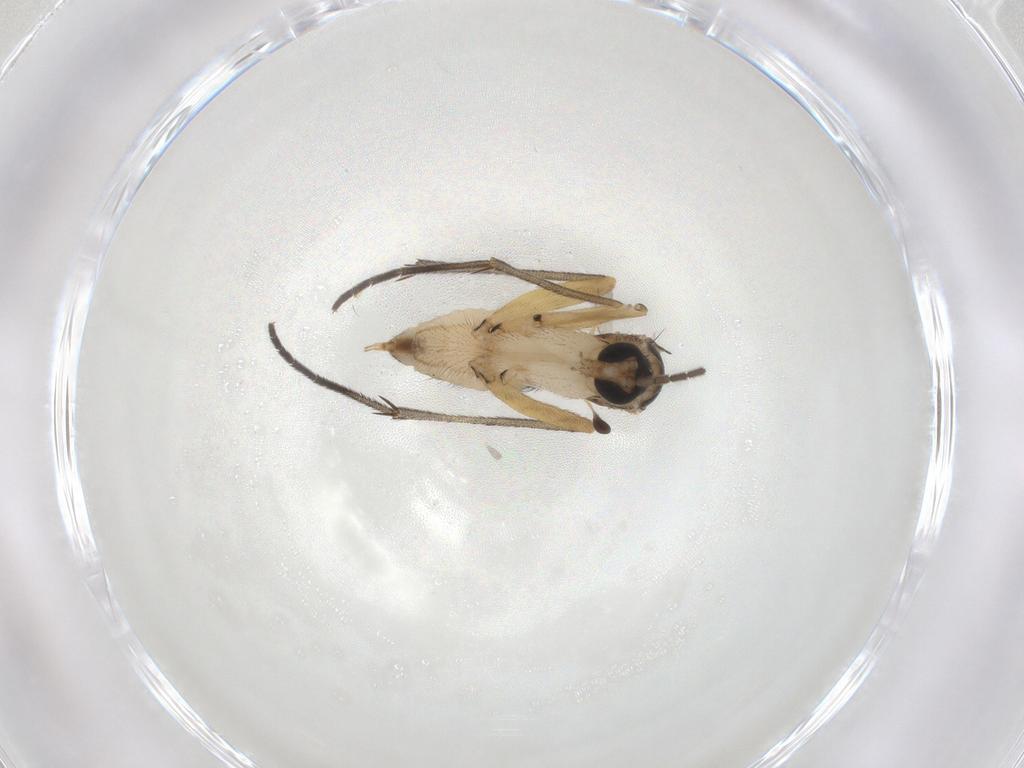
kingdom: Animalia
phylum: Arthropoda
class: Insecta
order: Diptera
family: Sciaridae
